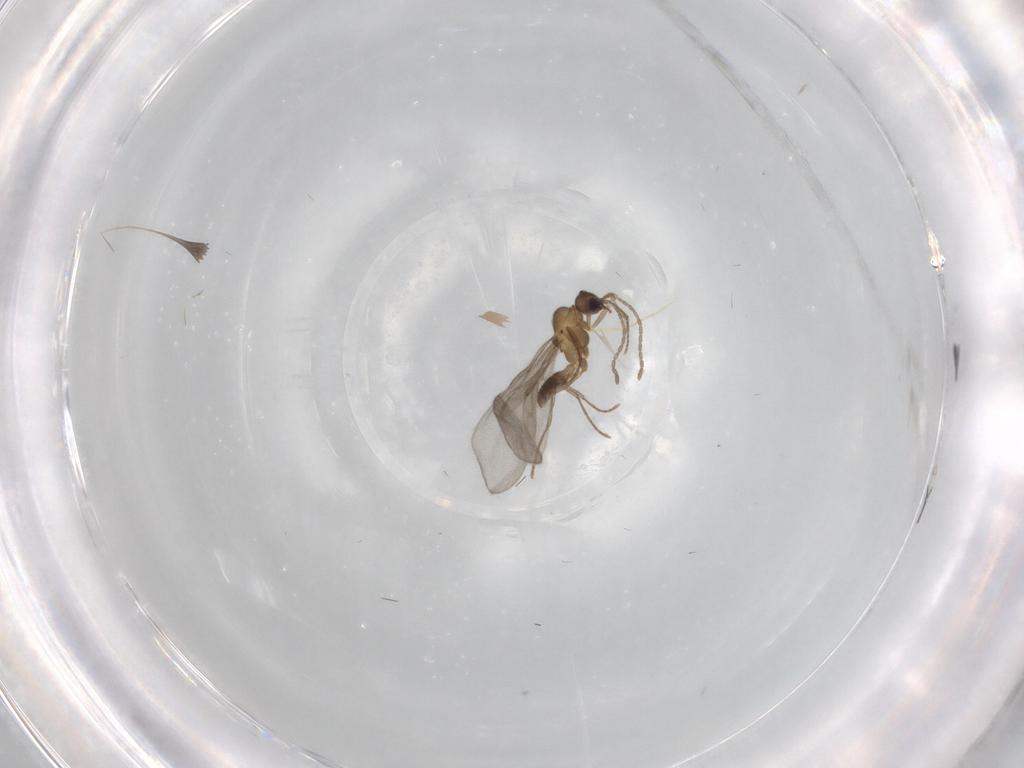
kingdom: Animalia
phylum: Arthropoda
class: Insecta
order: Hymenoptera
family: Formicidae
